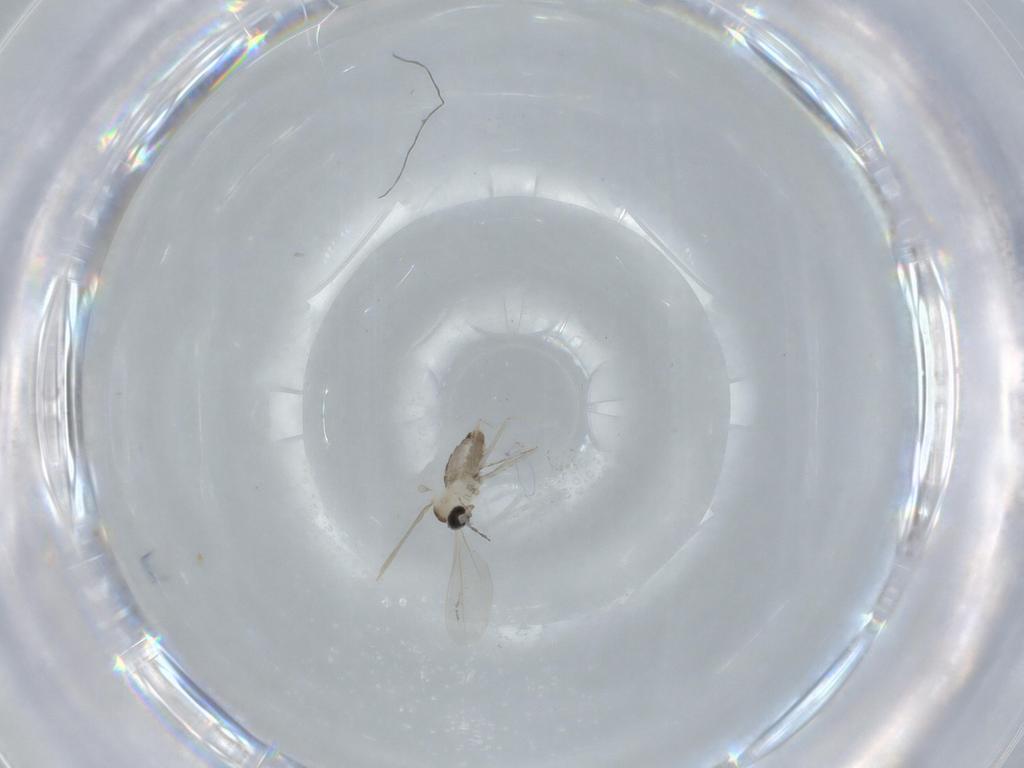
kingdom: Animalia
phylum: Arthropoda
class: Insecta
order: Diptera
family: Cecidomyiidae
